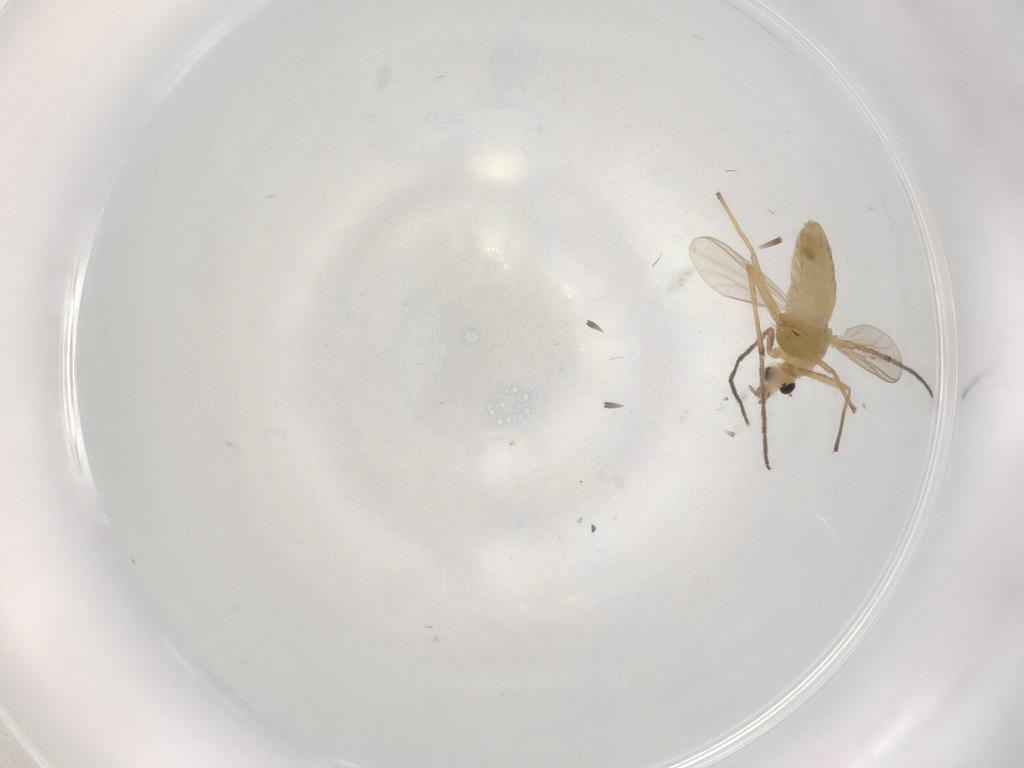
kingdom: Animalia
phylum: Arthropoda
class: Insecta
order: Diptera
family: Chironomidae
